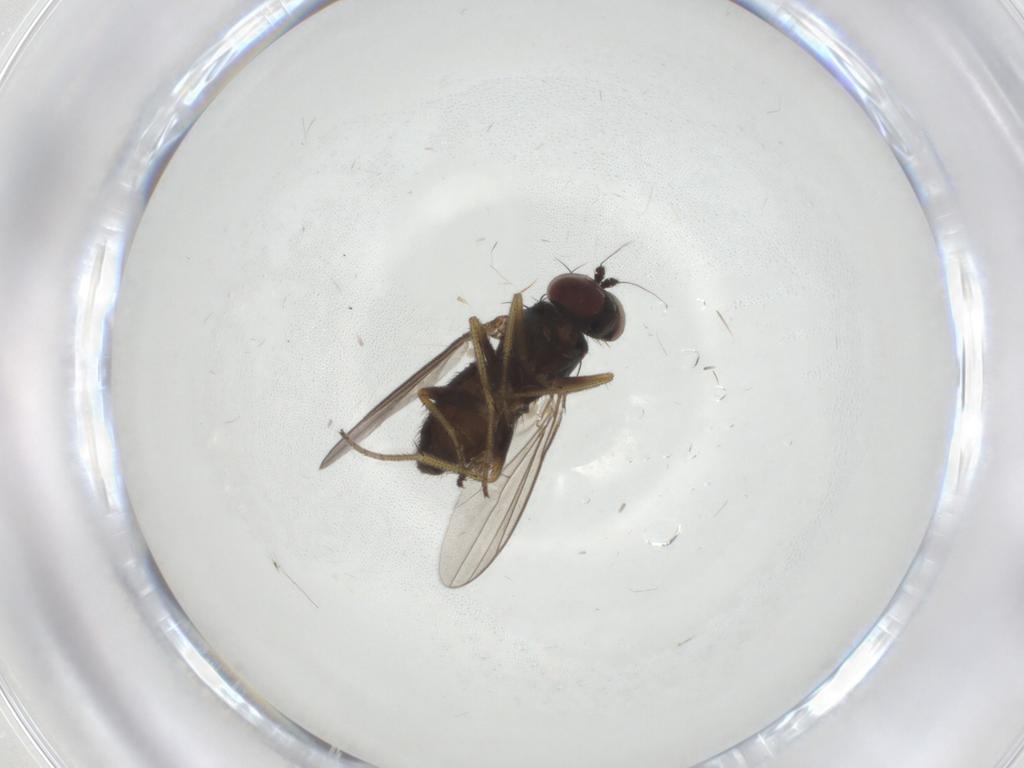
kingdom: Animalia
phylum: Arthropoda
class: Insecta
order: Diptera
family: Dolichopodidae
